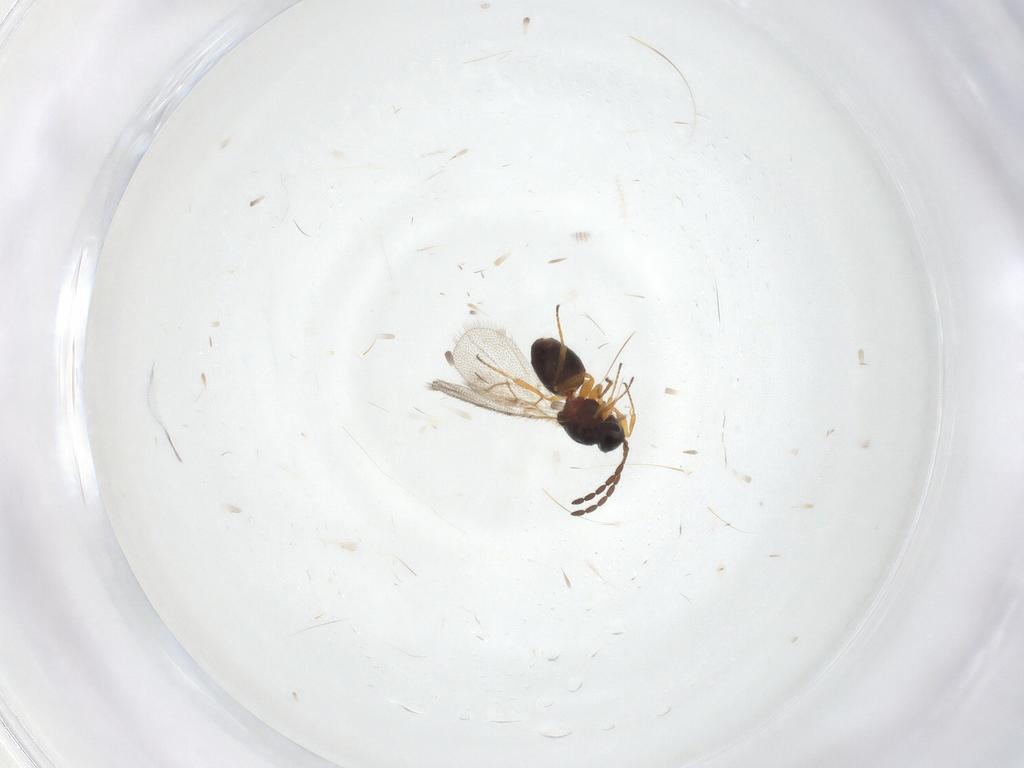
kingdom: Animalia
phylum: Arthropoda
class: Insecta
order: Hymenoptera
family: Figitidae
